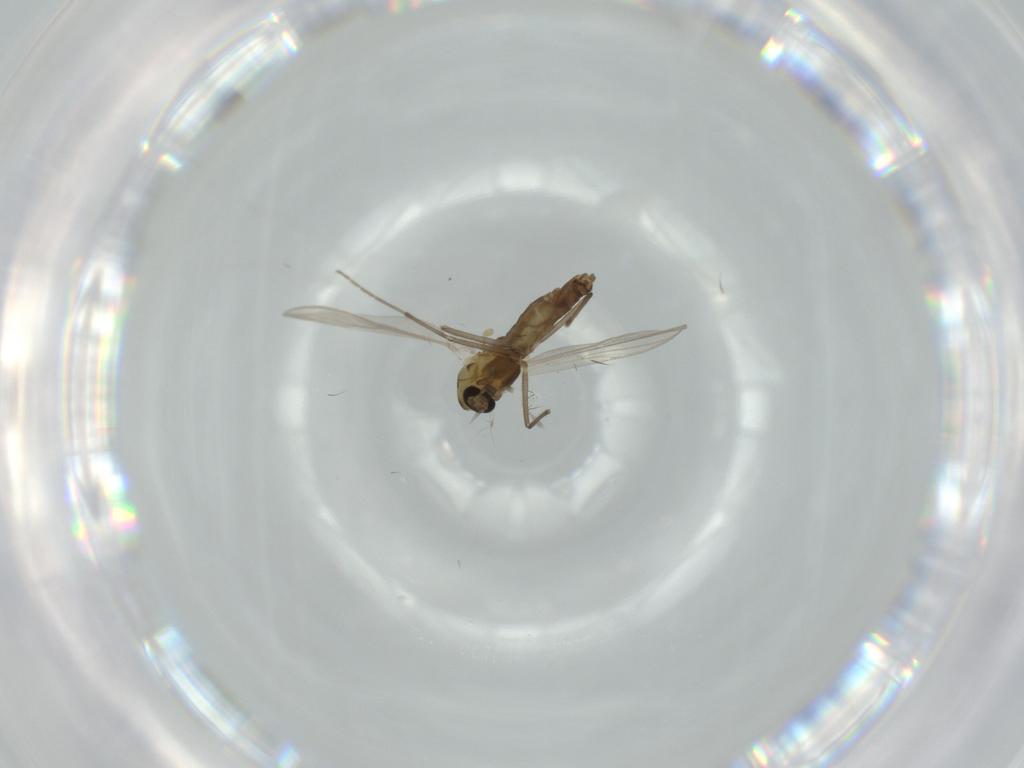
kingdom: Animalia
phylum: Arthropoda
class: Insecta
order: Diptera
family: Chironomidae
